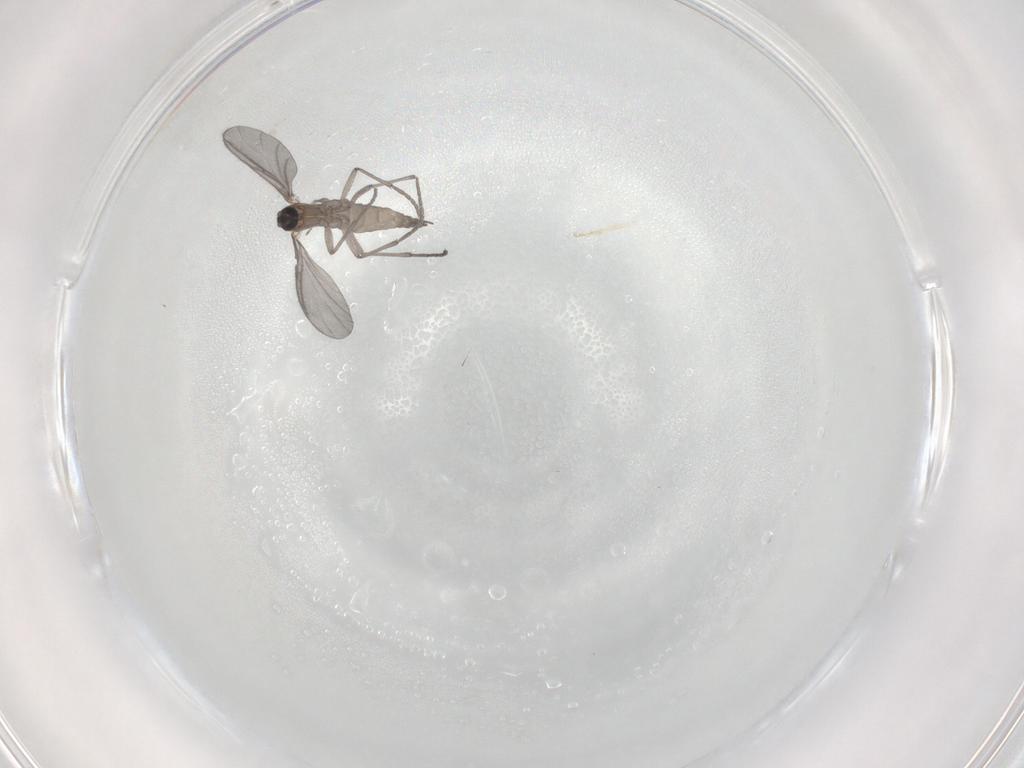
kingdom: Animalia
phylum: Arthropoda
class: Insecta
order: Diptera
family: Sciaridae
